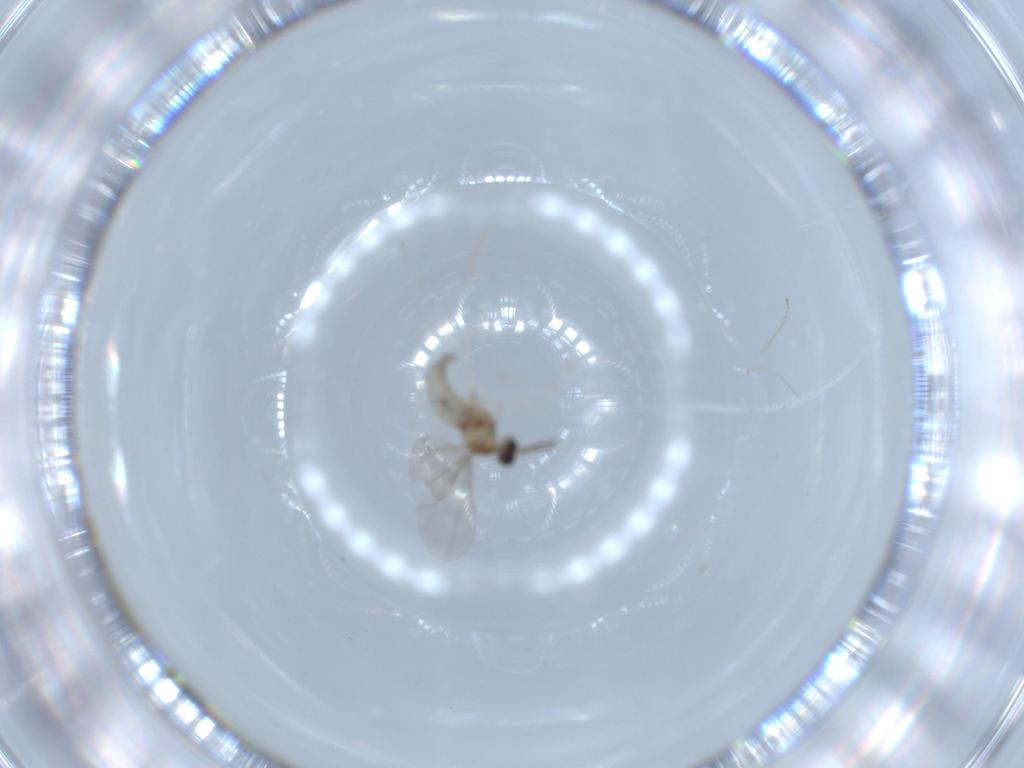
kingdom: Animalia
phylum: Arthropoda
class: Insecta
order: Diptera
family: Cecidomyiidae
